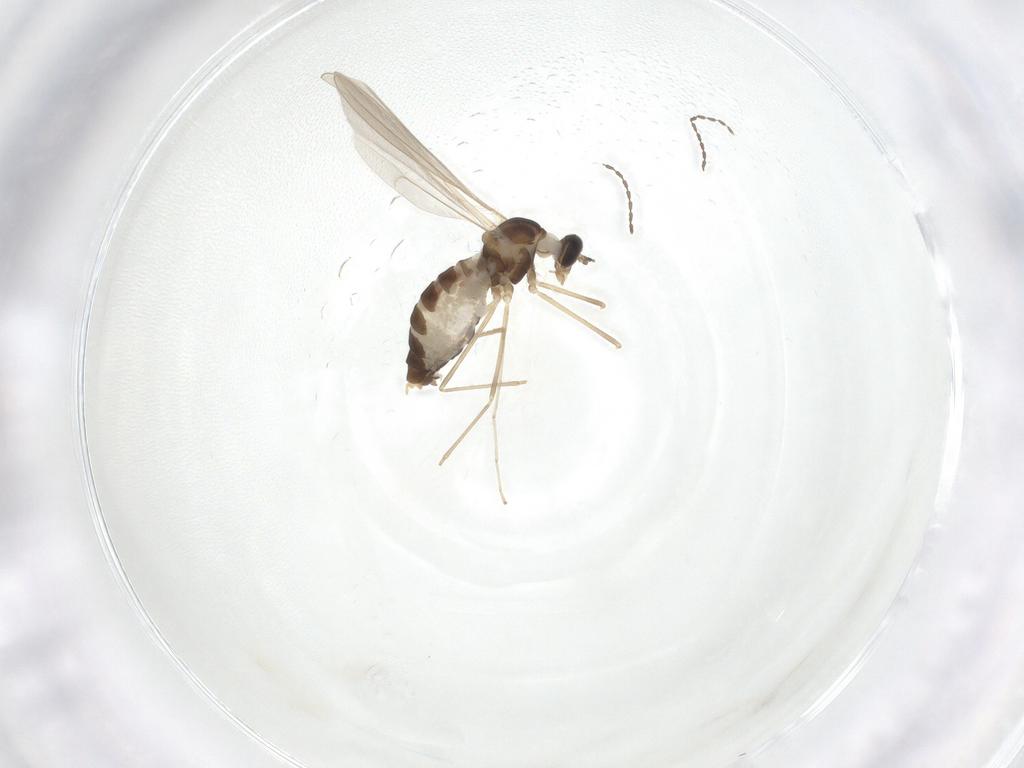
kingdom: Animalia
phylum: Arthropoda
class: Insecta
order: Diptera
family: Cecidomyiidae
